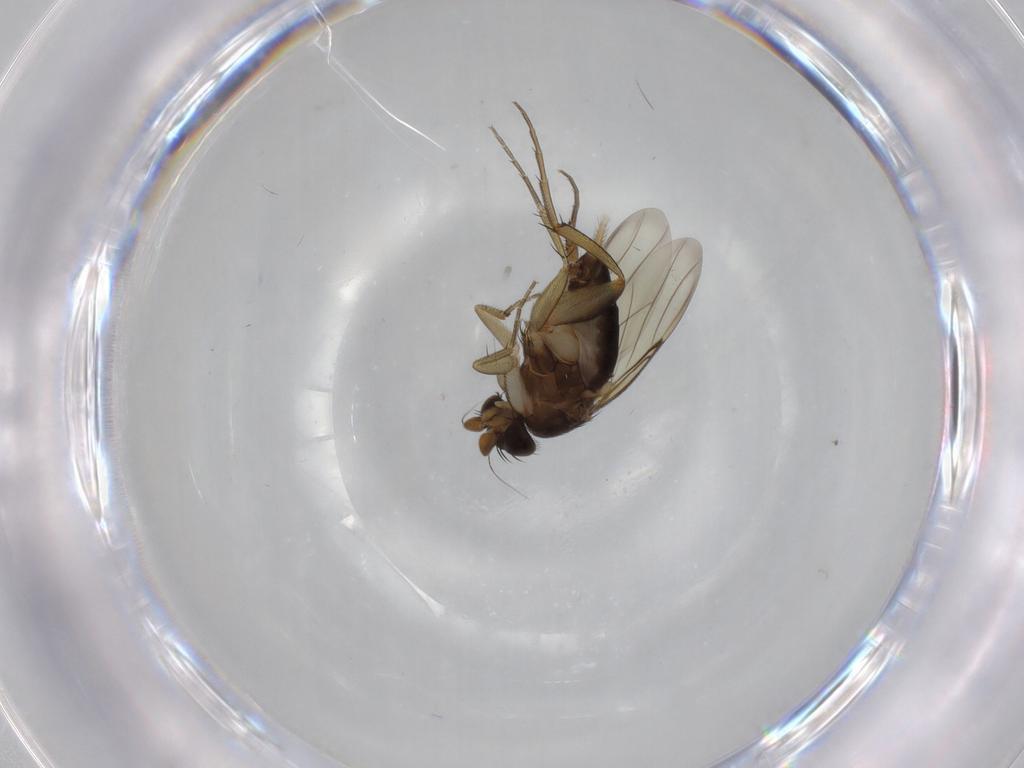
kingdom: Animalia
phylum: Arthropoda
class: Insecta
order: Diptera
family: Phoridae
